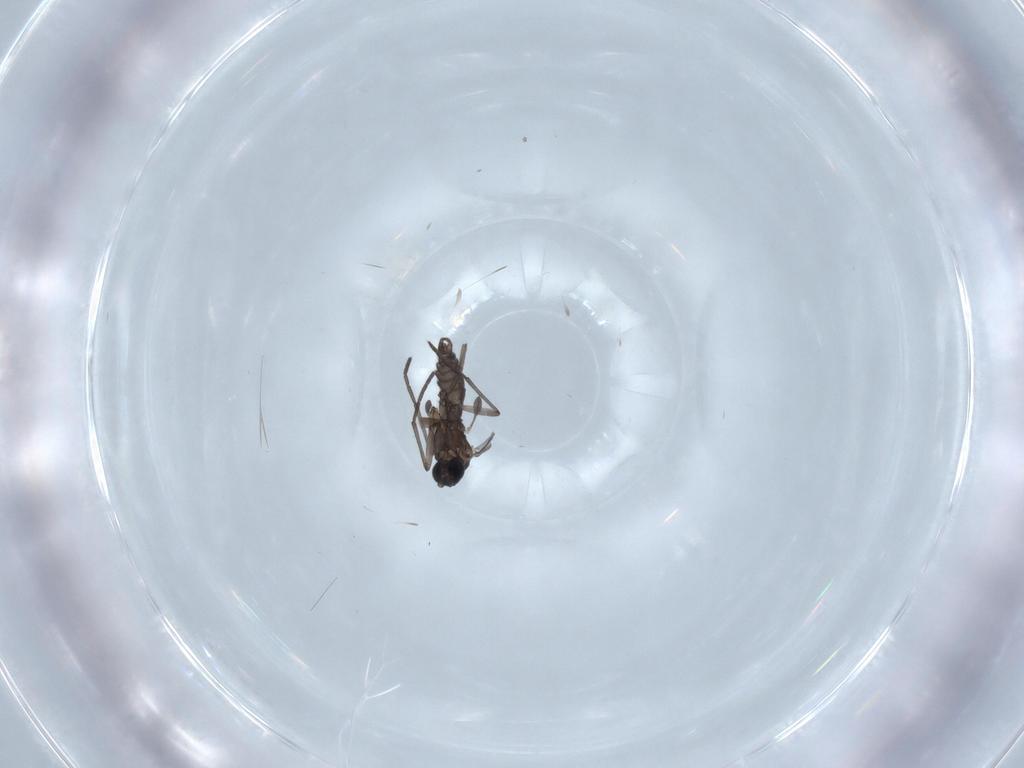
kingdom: Animalia
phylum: Arthropoda
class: Insecta
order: Diptera
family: Sciaridae
